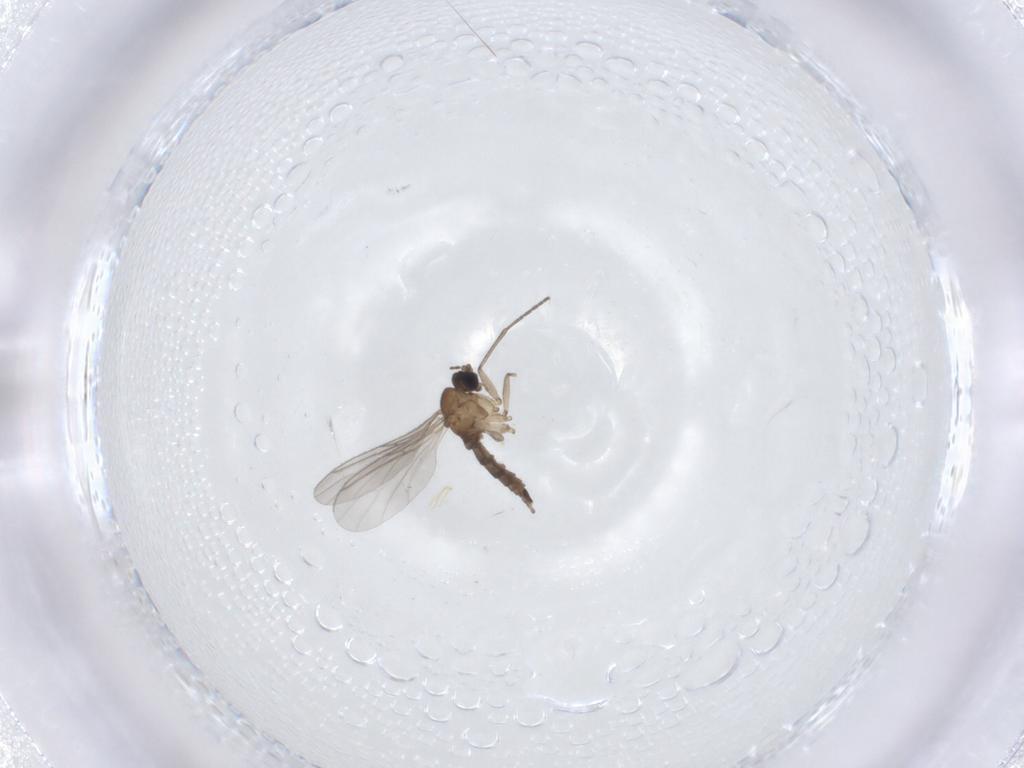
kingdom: Animalia
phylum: Arthropoda
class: Insecta
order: Diptera
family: Sciaridae
